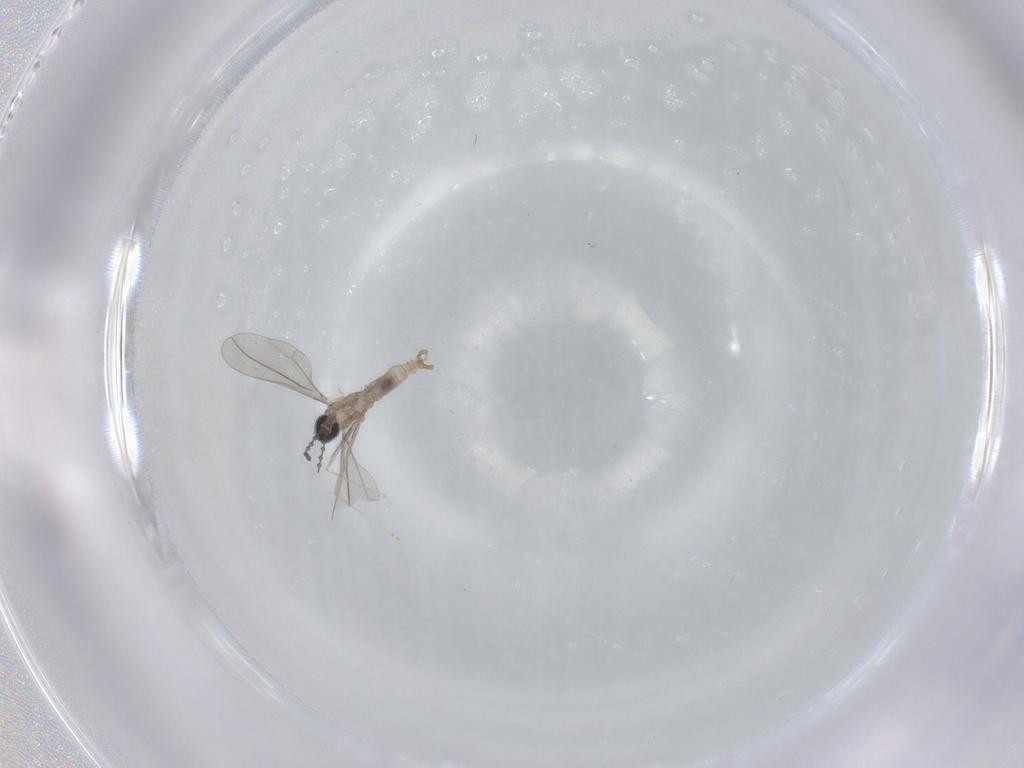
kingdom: Animalia
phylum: Arthropoda
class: Insecta
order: Diptera
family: Cecidomyiidae
